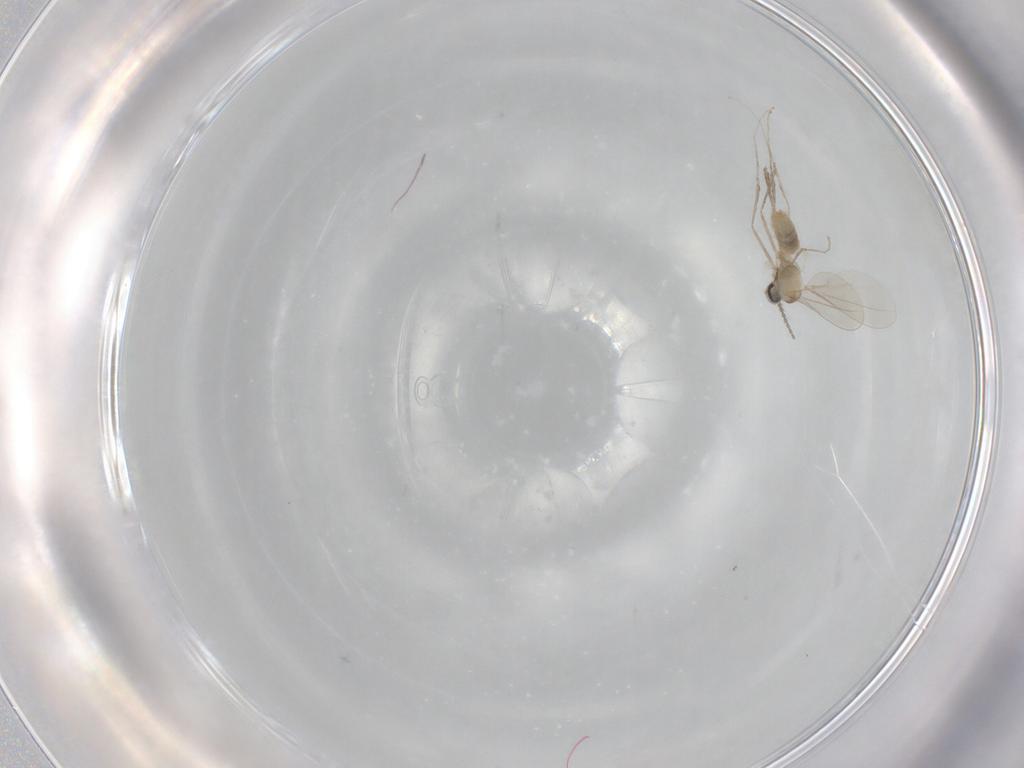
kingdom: Animalia
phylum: Arthropoda
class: Insecta
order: Diptera
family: Cecidomyiidae
